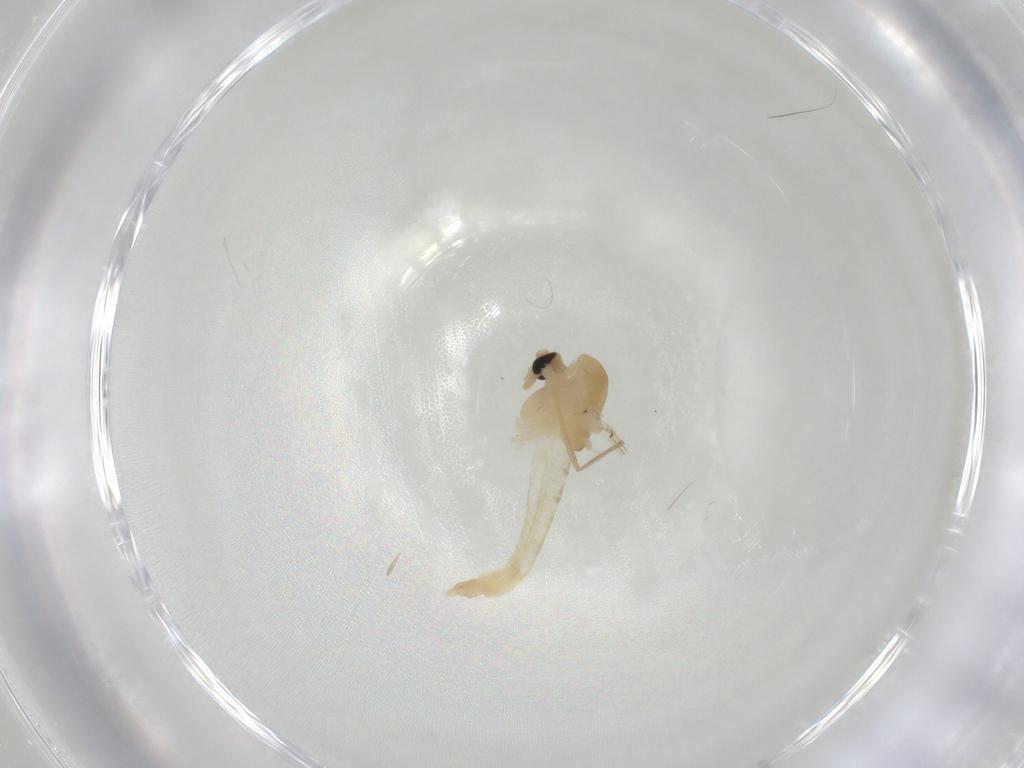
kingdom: Animalia
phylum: Arthropoda
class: Insecta
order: Diptera
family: Chironomidae
